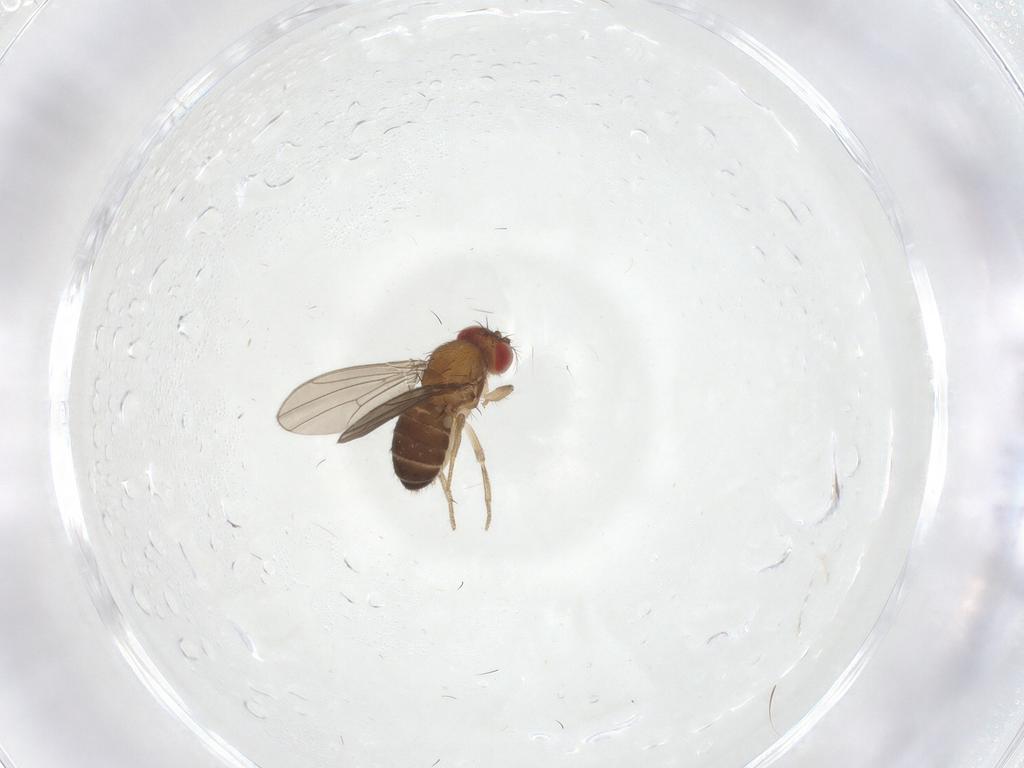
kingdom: Animalia
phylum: Arthropoda
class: Insecta
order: Diptera
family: Drosophilidae
